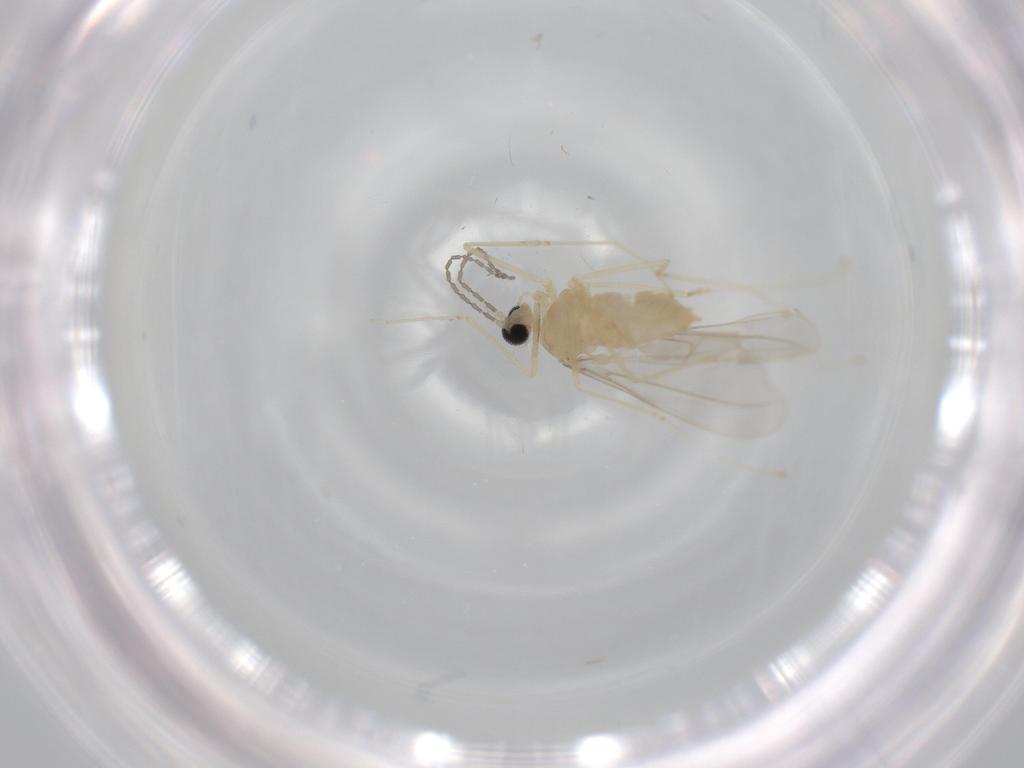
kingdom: Animalia
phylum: Arthropoda
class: Insecta
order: Diptera
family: Cecidomyiidae
